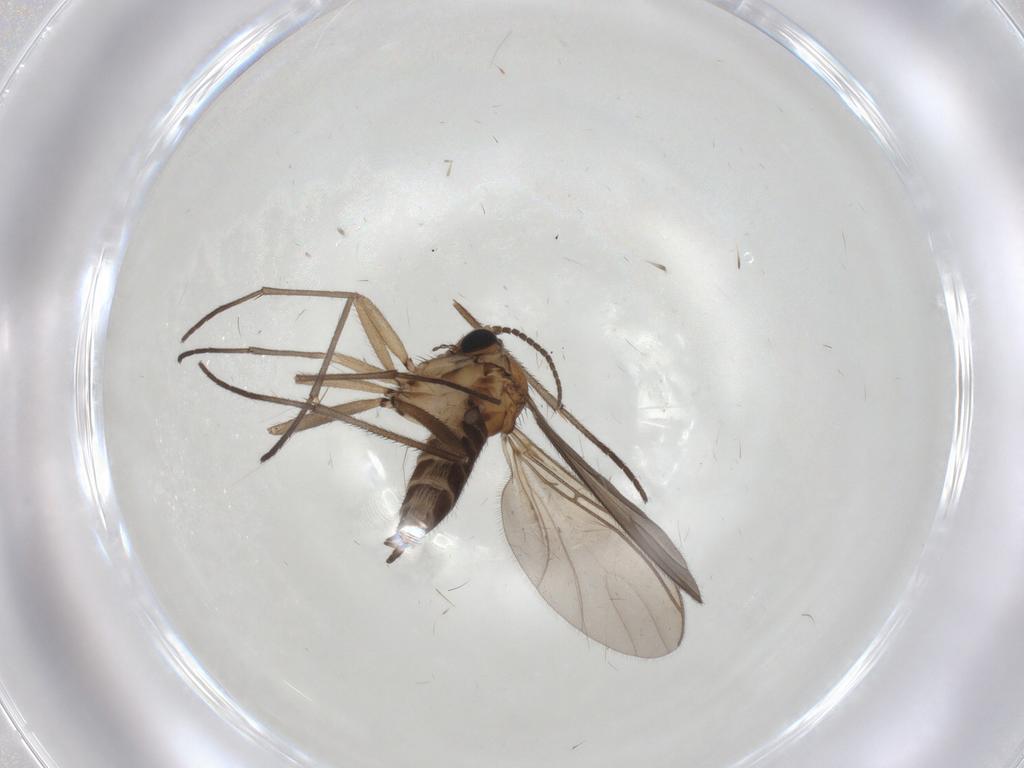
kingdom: Animalia
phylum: Arthropoda
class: Insecta
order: Diptera
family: Sciaridae
